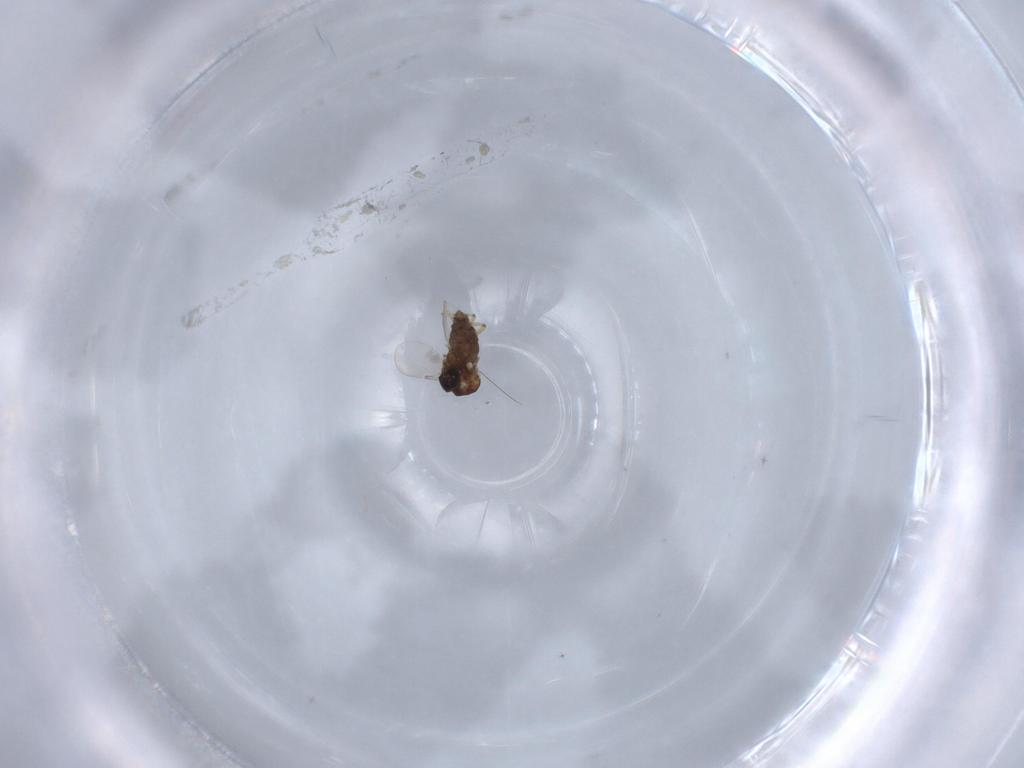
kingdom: Animalia
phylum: Arthropoda
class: Insecta
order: Diptera
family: Ceratopogonidae
